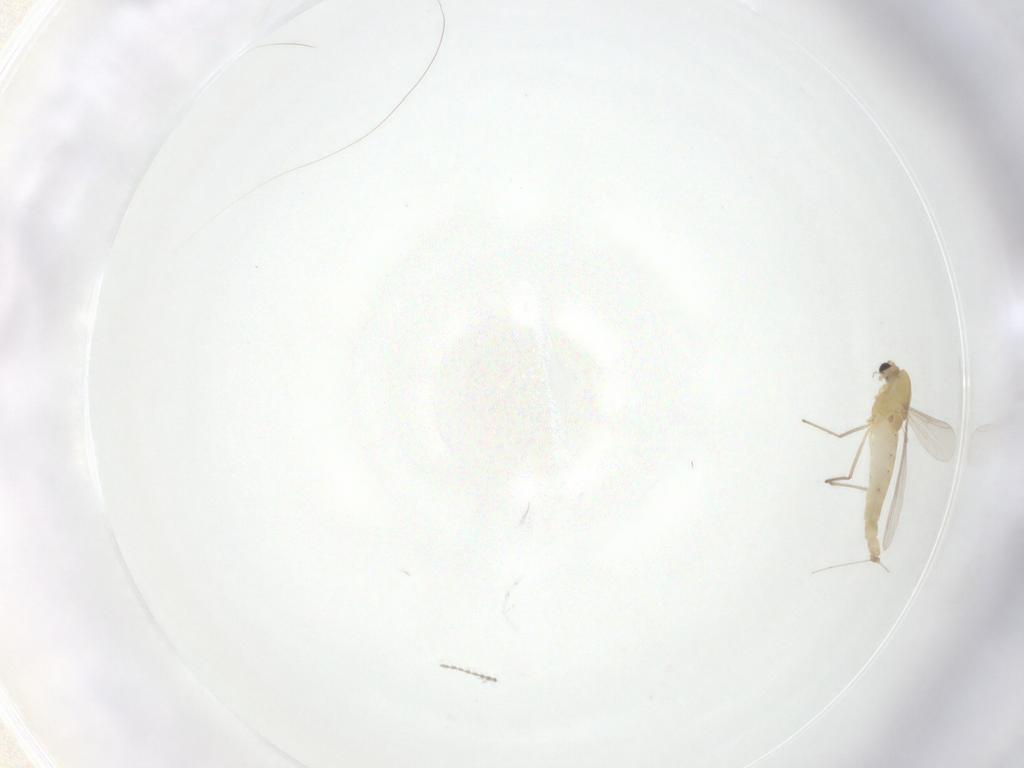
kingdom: Animalia
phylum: Arthropoda
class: Insecta
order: Diptera
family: Chironomidae
